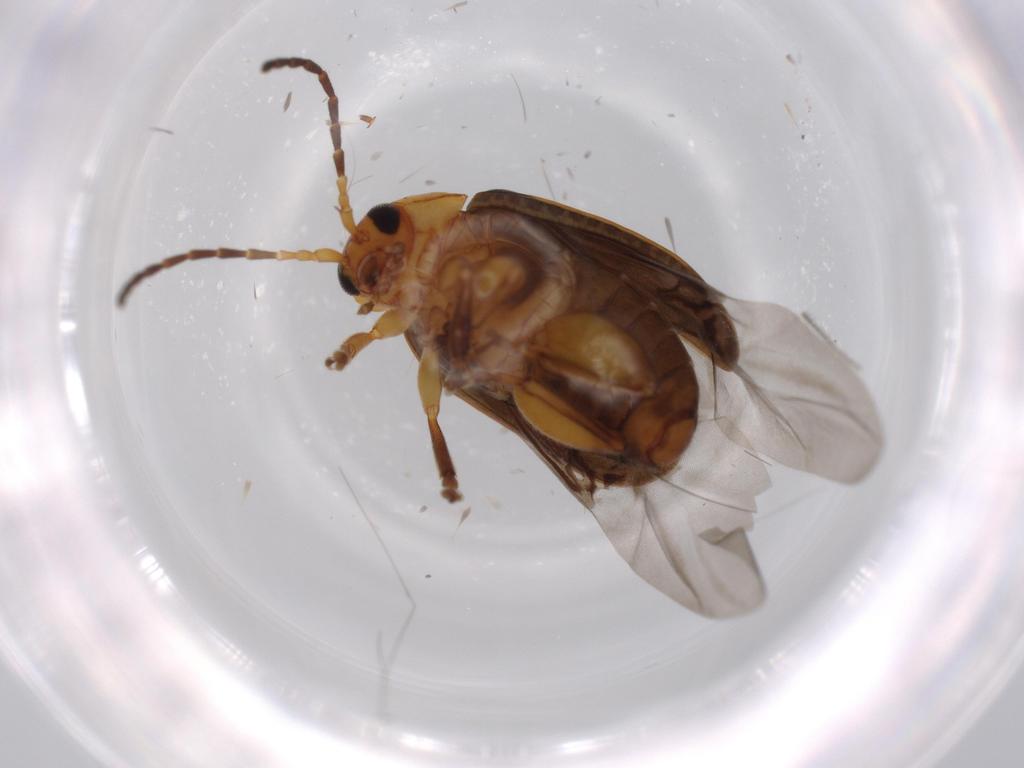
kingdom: Animalia
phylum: Arthropoda
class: Insecta
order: Coleoptera
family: Chrysomelidae
